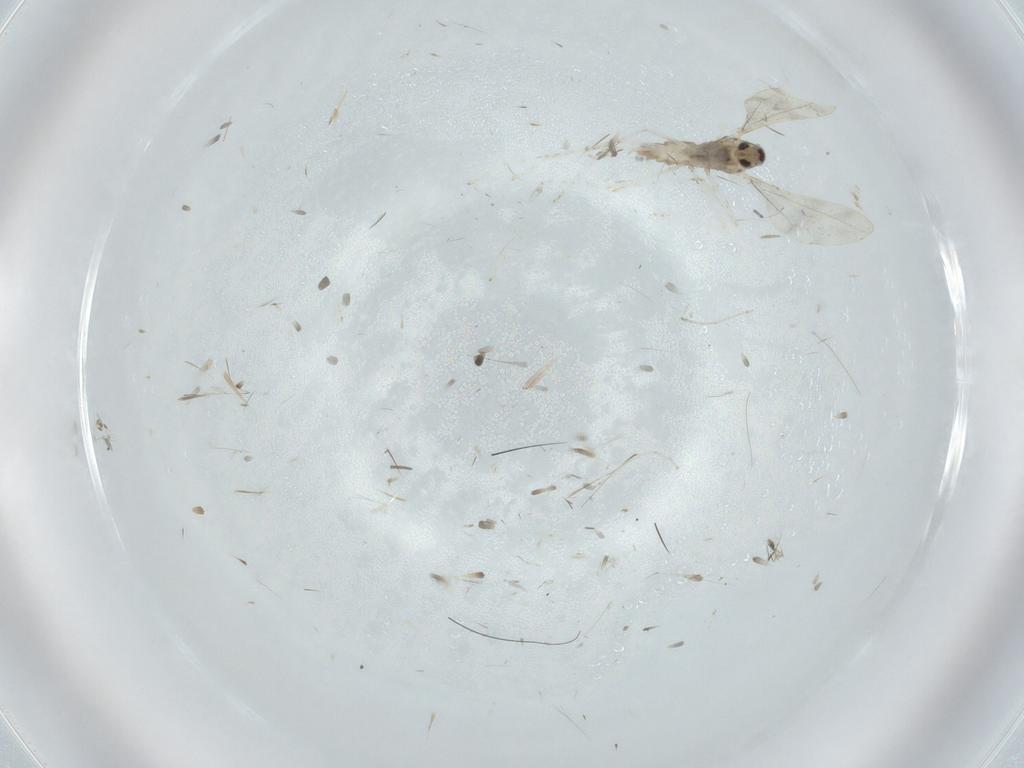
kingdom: Animalia
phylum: Arthropoda
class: Insecta
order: Diptera
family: Cecidomyiidae
